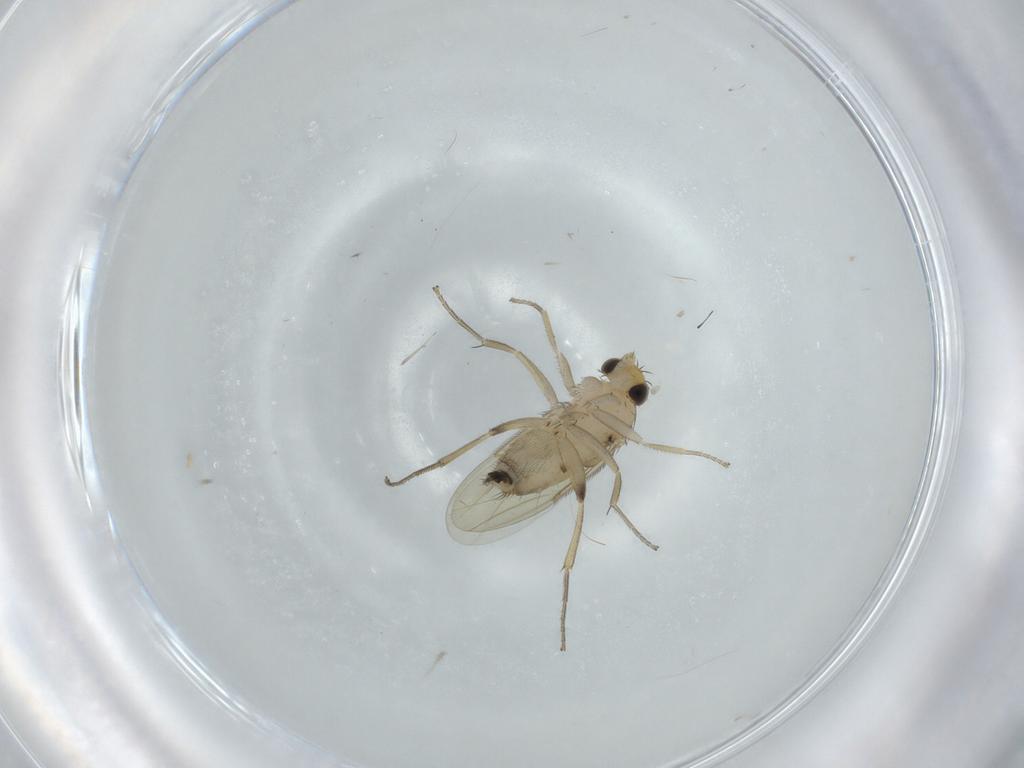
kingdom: Animalia
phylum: Arthropoda
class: Insecta
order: Diptera
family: Phoridae
